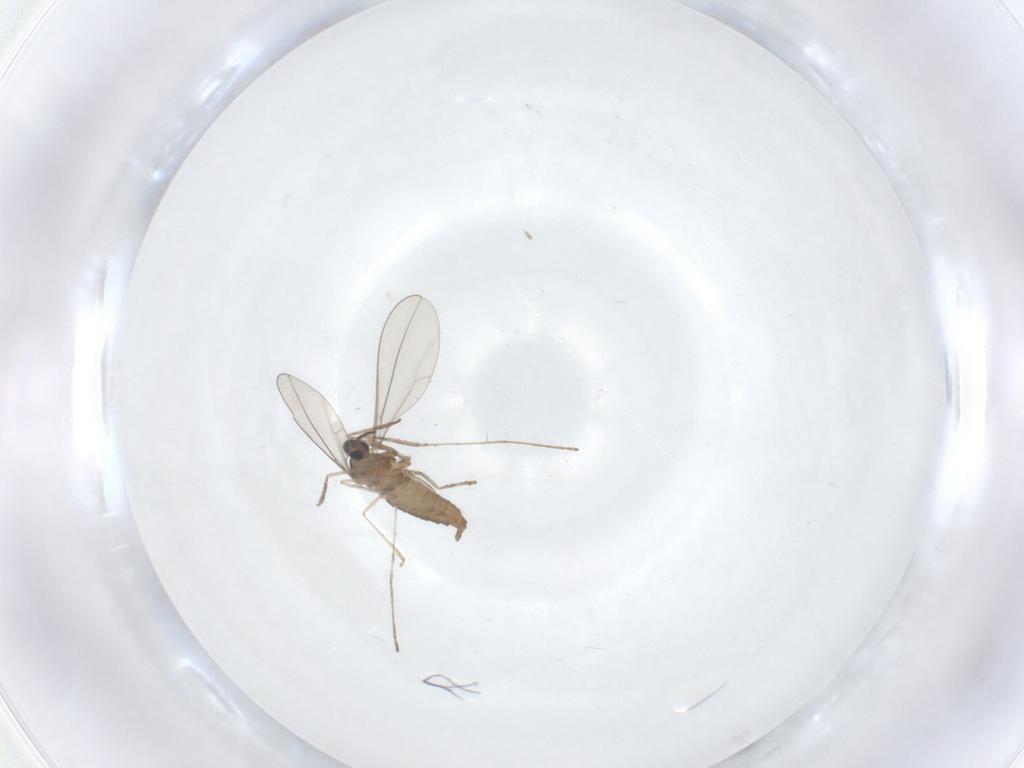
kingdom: Animalia
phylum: Arthropoda
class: Insecta
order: Diptera
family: Cecidomyiidae
